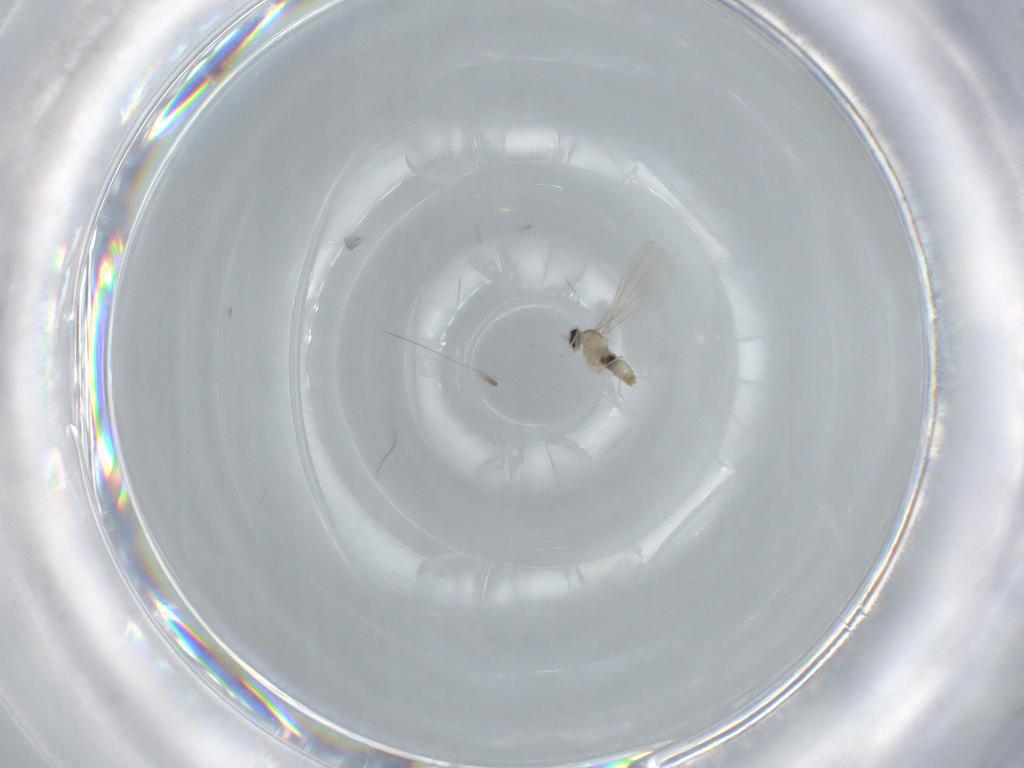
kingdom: Animalia
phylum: Arthropoda
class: Insecta
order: Diptera
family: Cecidomyiidae
